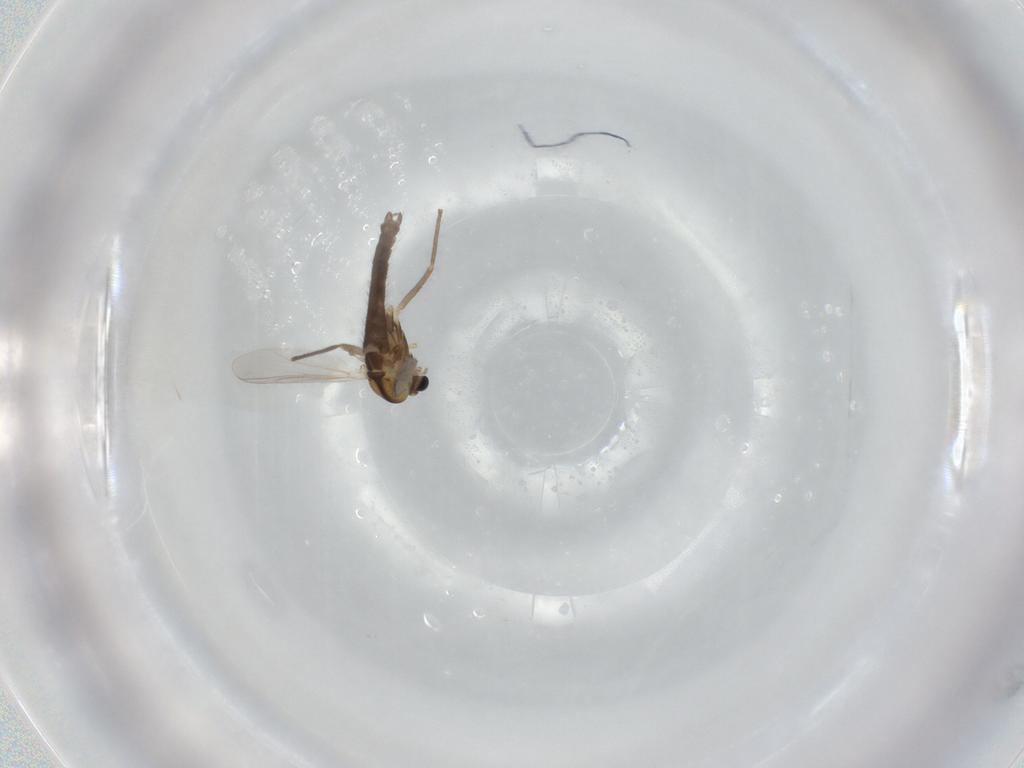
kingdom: Animalia
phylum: Arthropoda
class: Insecta
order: Diptera
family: Chironomidae
